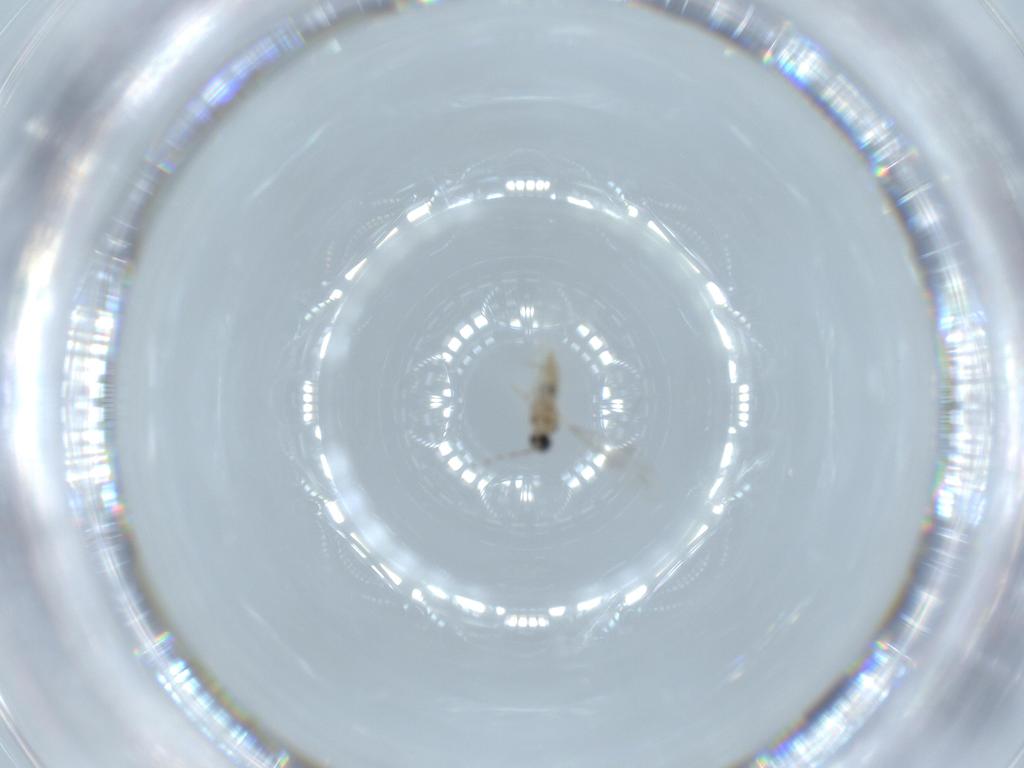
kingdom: Animalia
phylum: Arthropoda
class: Insecta
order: Diptera
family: Cecidomyiidae
